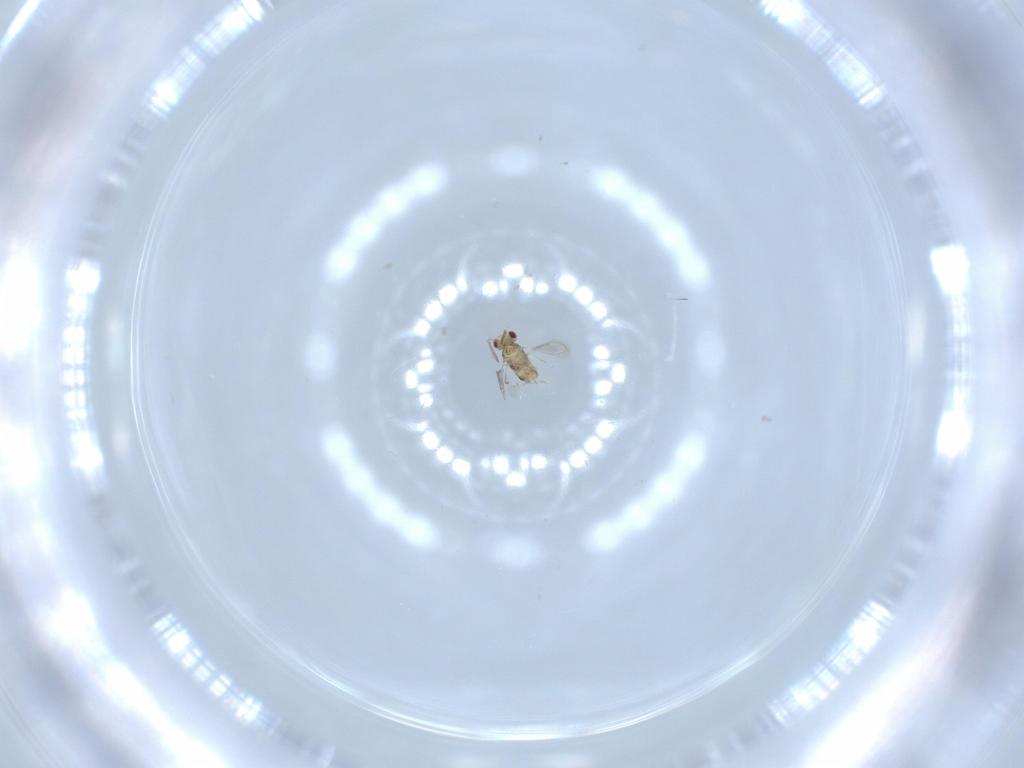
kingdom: Animalia
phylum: Arthropoda
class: Insecta
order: Hymenoptera
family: Aphelinidae
